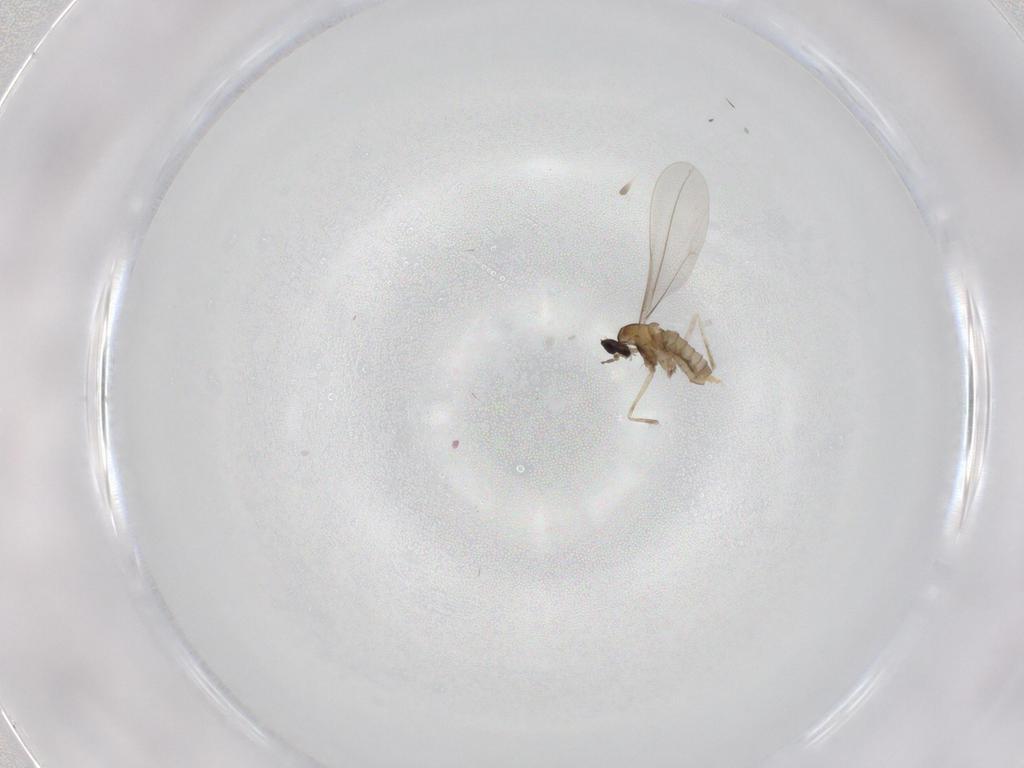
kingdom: Animalia
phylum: Arthropoda
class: Insecta
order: Diptera
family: Cecidomyiidae
